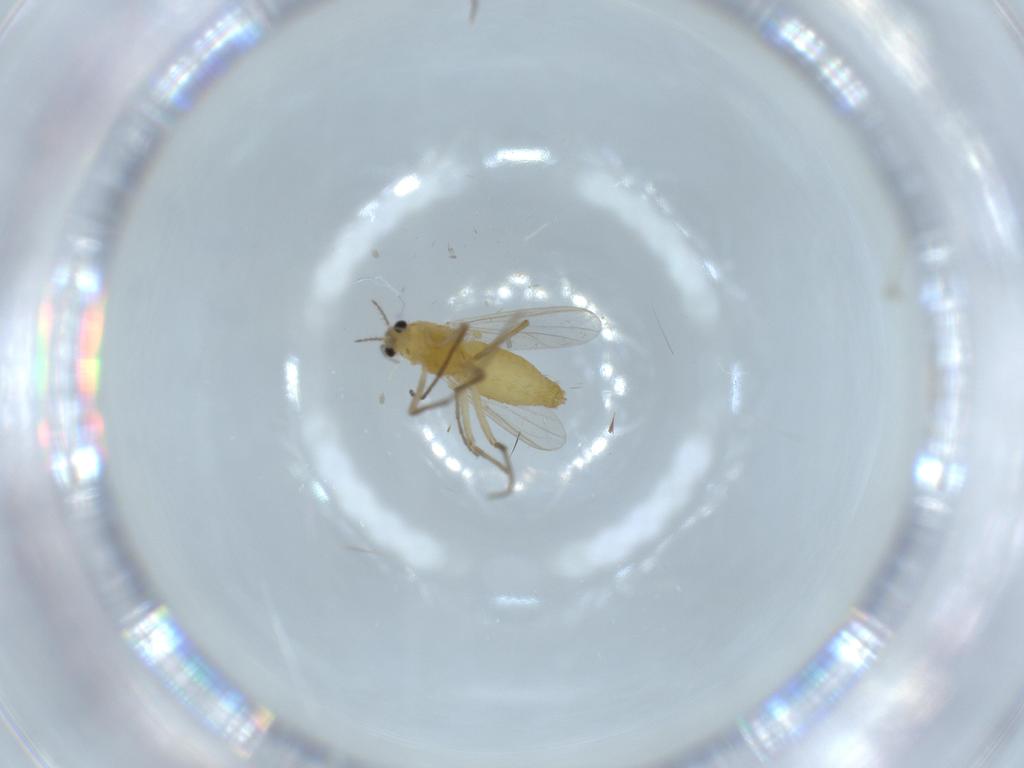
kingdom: Animalia
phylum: Arthropoda
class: Insecta
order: Diptera
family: Chironomidae
